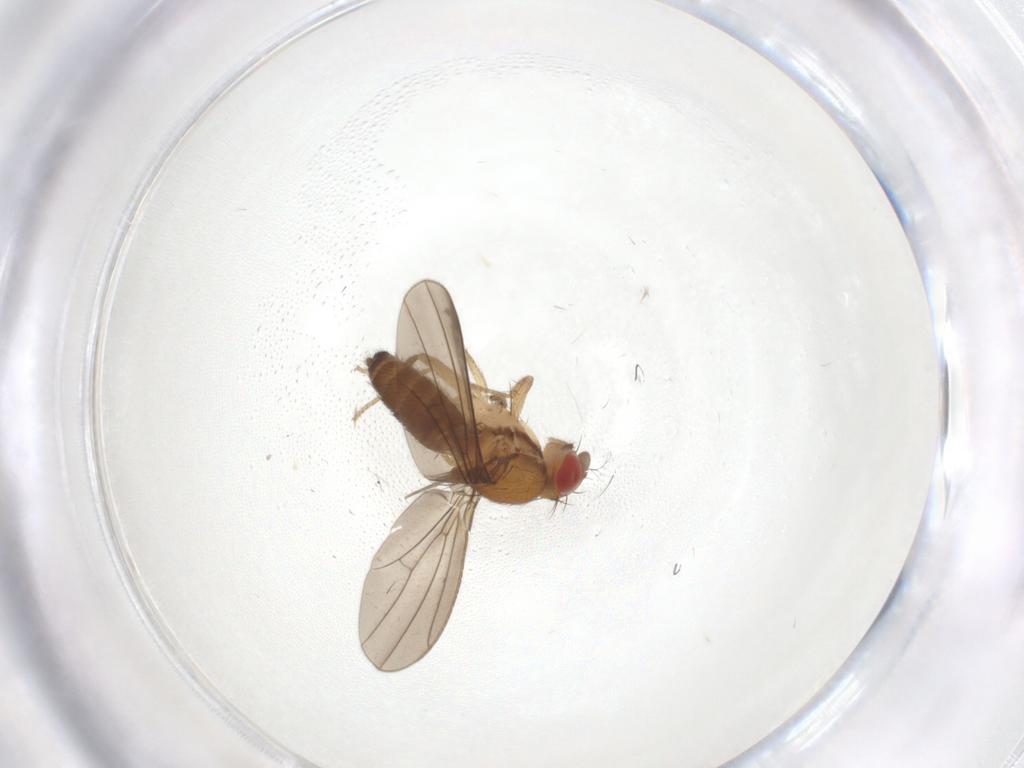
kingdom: Animalia
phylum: Arthropoda
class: Insecta
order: Diptera
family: Drosophilidae
